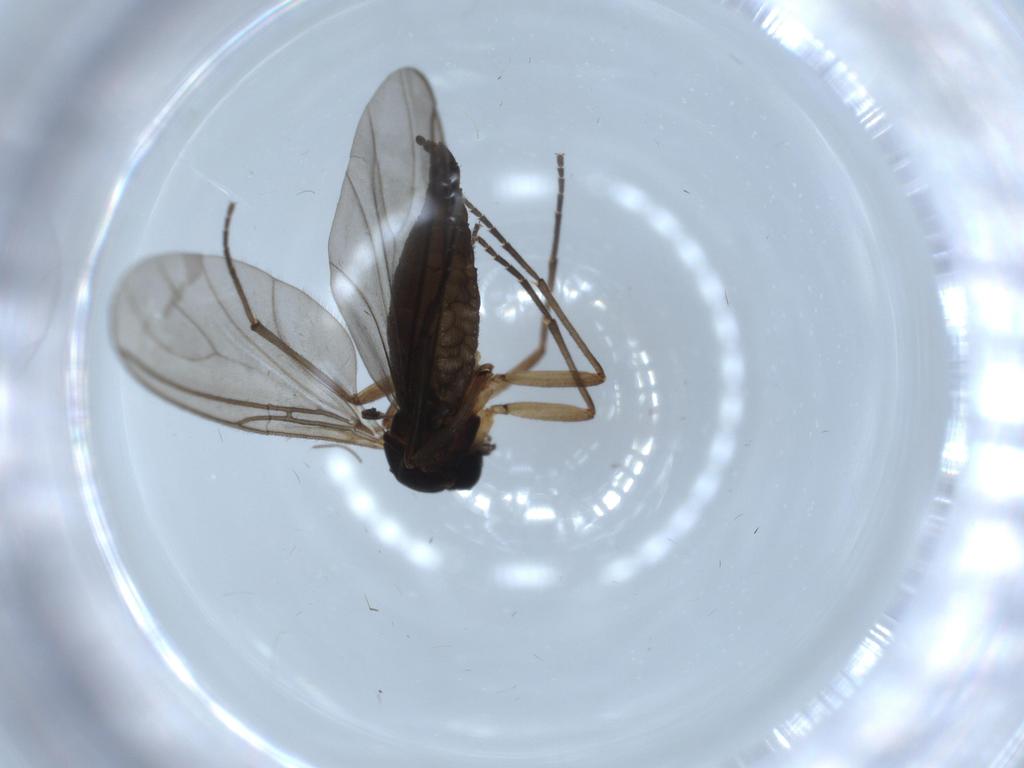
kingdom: Animalia
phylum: Arthropoda
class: Insecta
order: Diptera
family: Sciaridae
